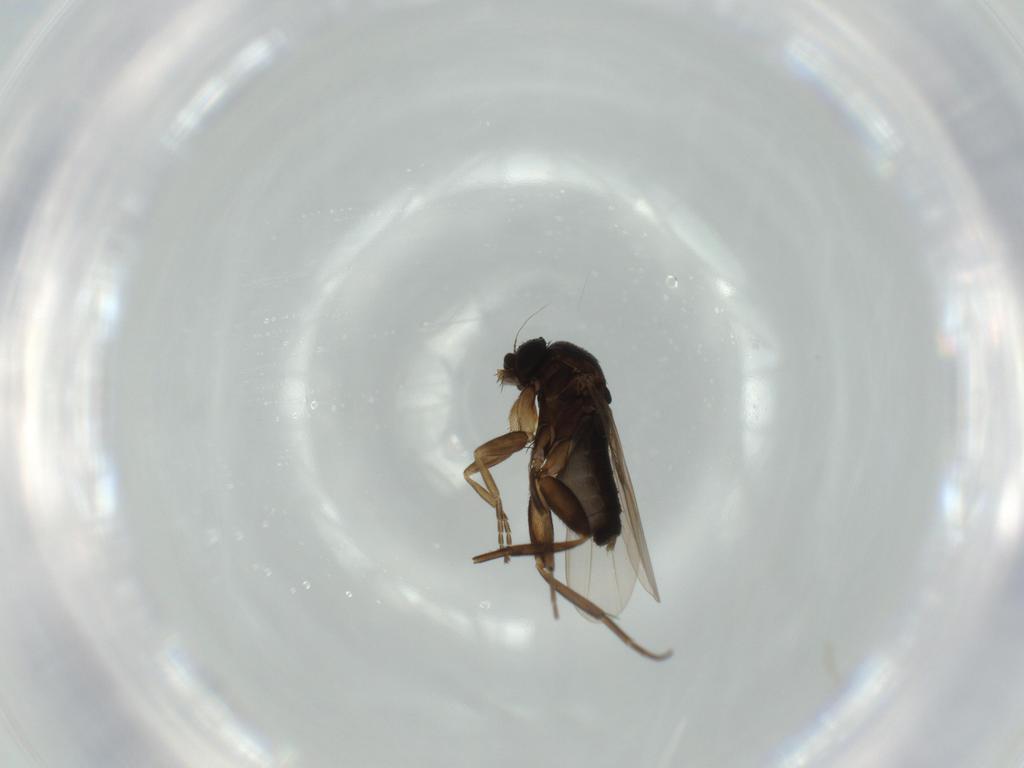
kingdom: Animalia
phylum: Arthropoda
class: Insecta
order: Diptera
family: Phoridae
